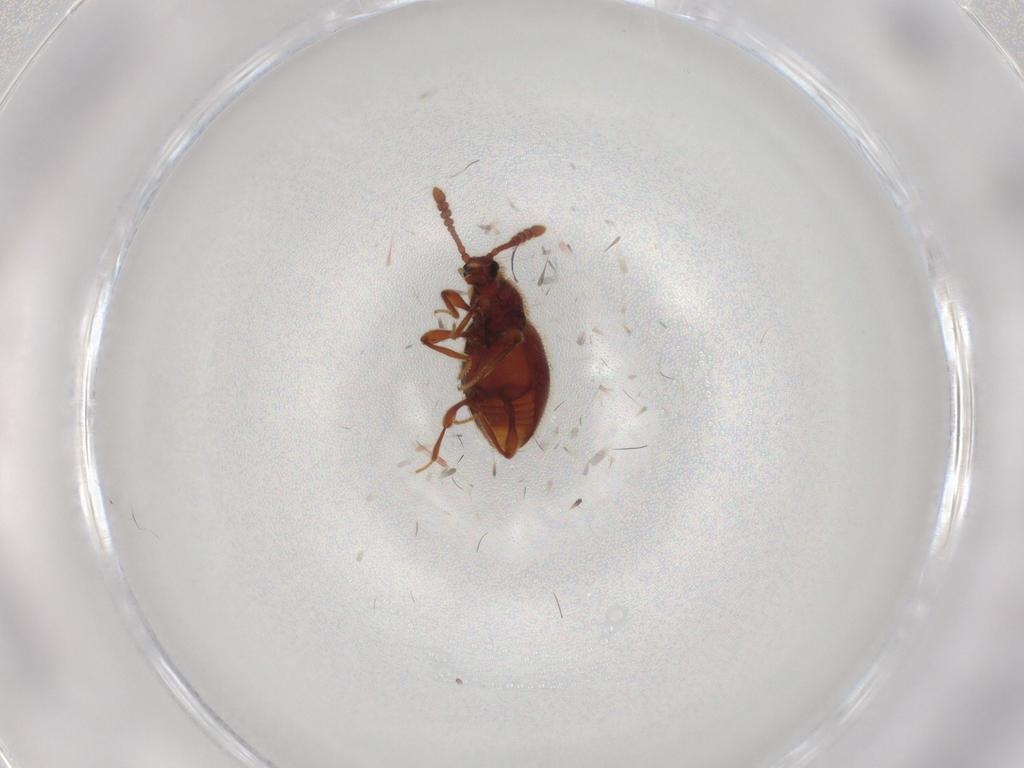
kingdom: Animalia
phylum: Arthropoda
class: Insecta
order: Coleoptera
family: Staphylinidae
